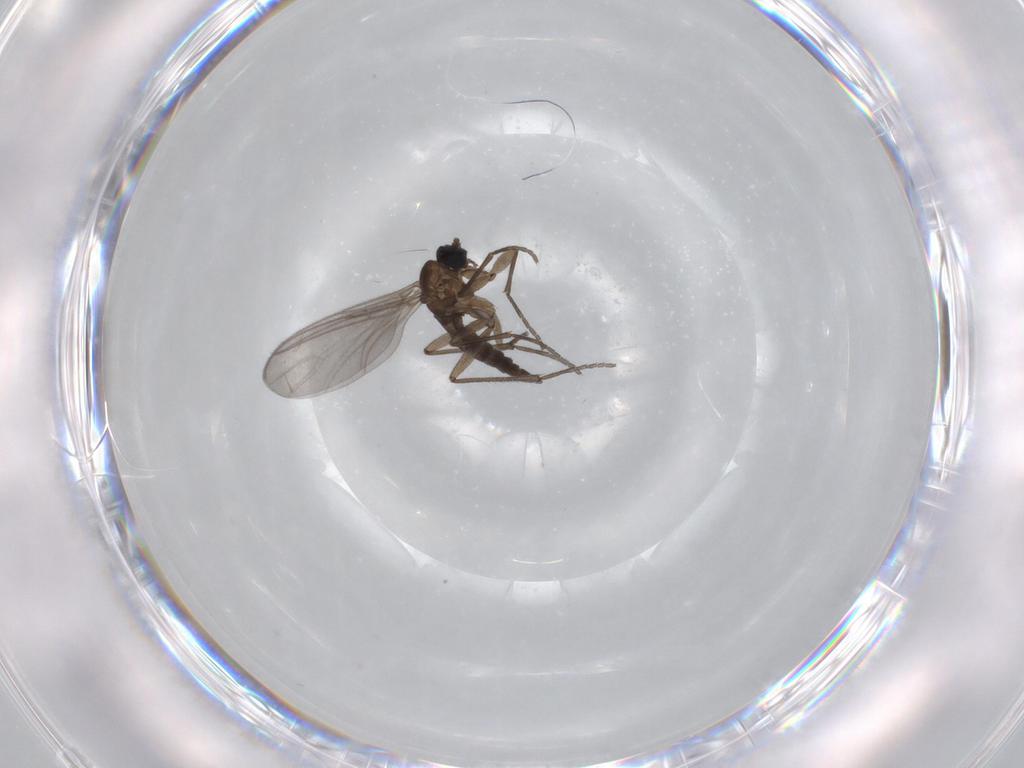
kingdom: Animalia
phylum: Arthropoda
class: Insecta
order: Diptera
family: Sciaridae
